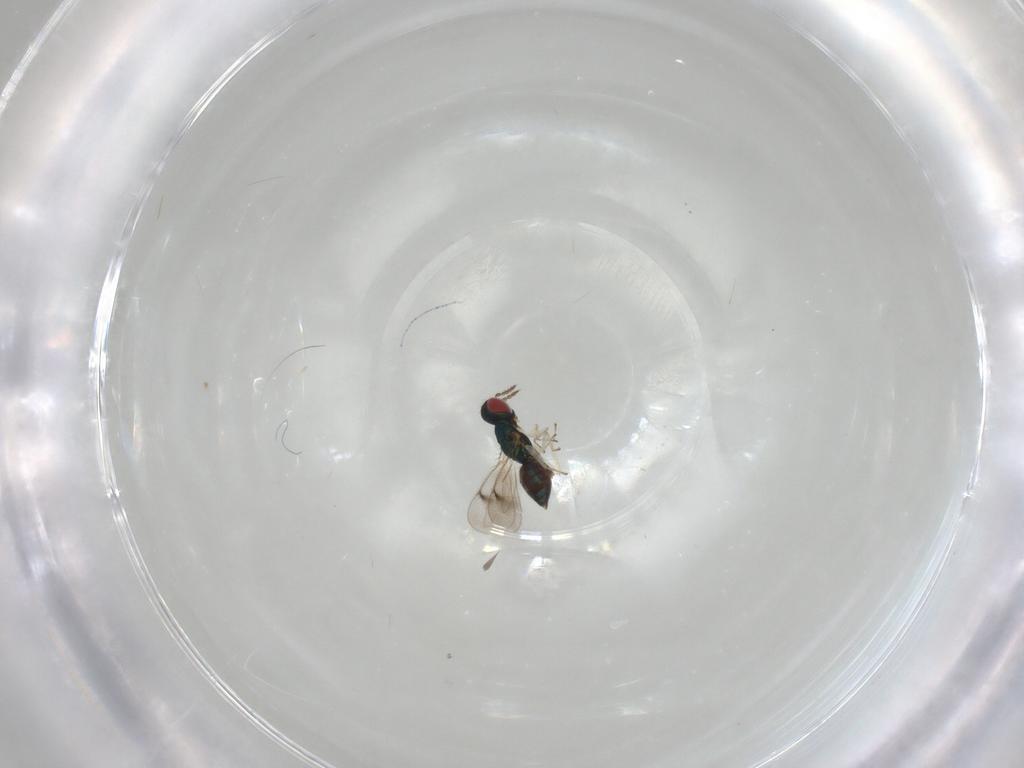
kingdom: Animalia
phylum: Arthropoda
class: Insecta
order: Hymenoptera
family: Eulophidae
